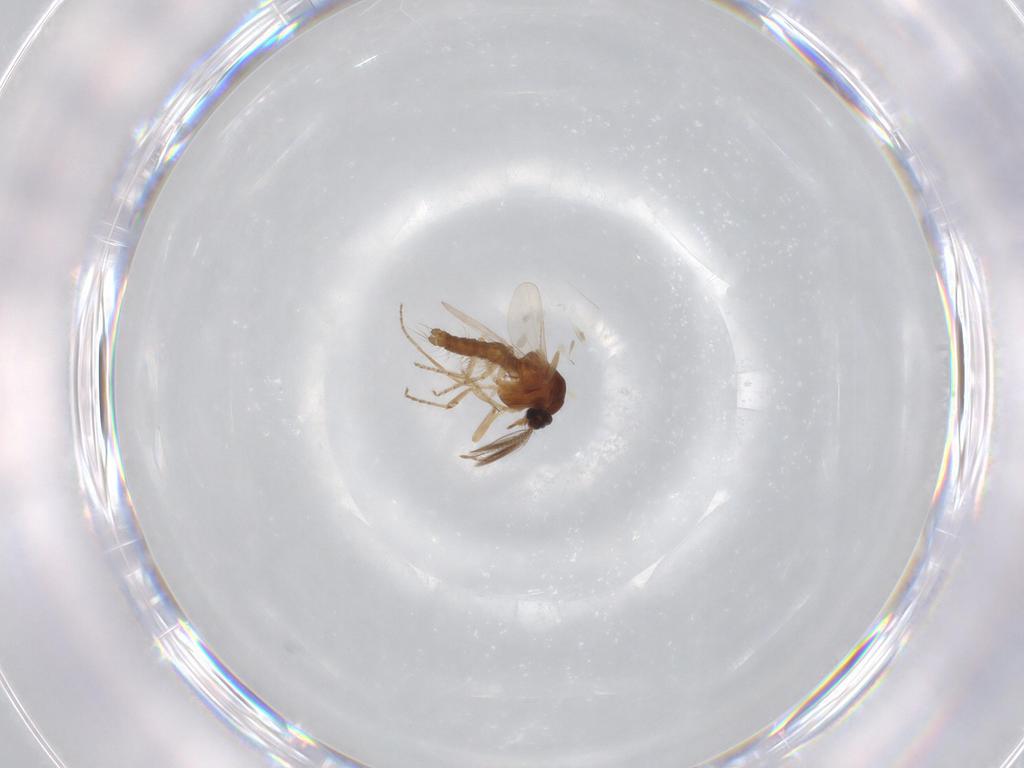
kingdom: Animalia
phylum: Arthropoda
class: Insecta
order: Diptera
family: Ceratopogonidae
